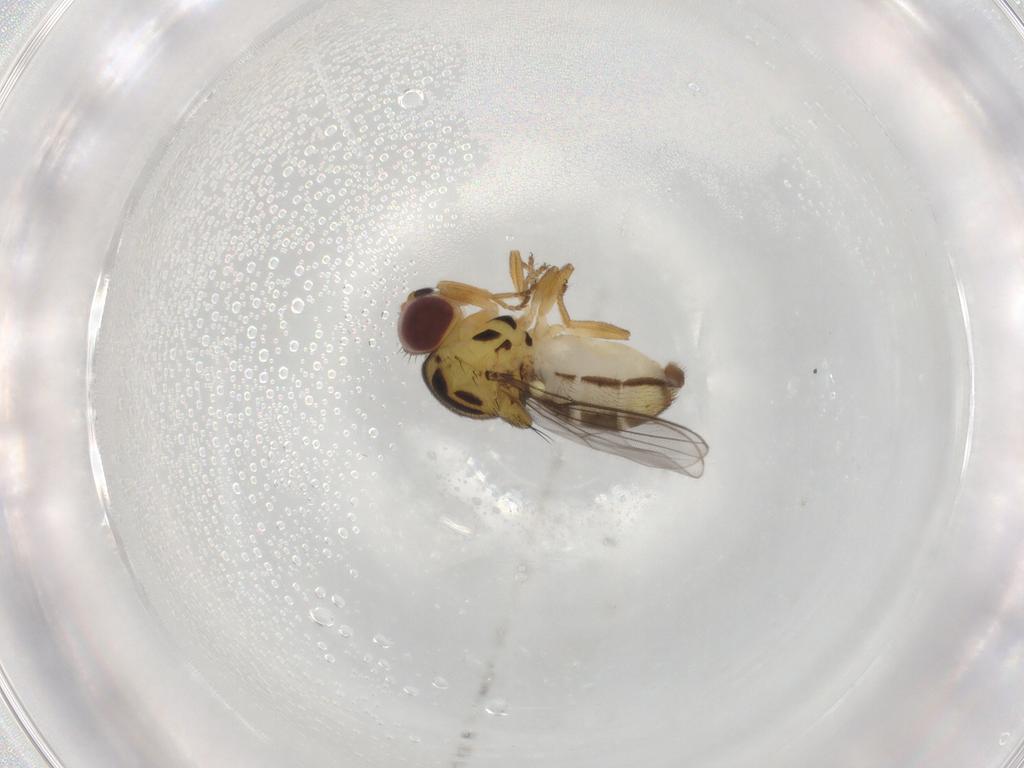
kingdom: Animalia
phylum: Arthropoda
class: Insecta
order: Diptera
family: Chloropidae
